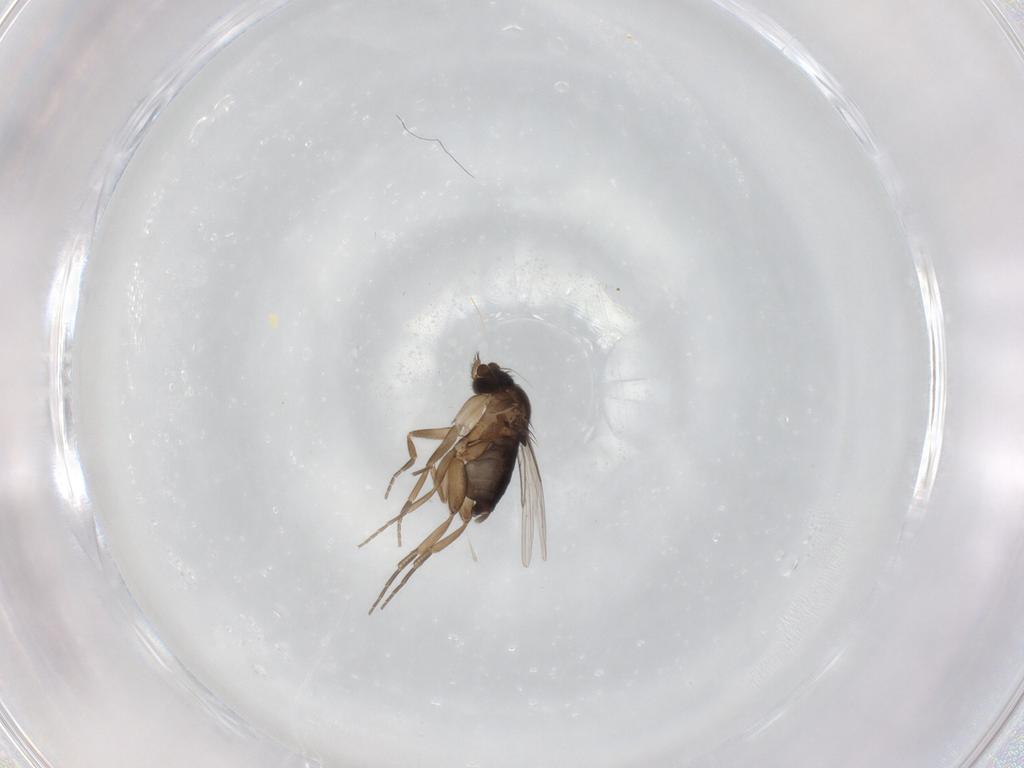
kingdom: Animalia
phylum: Arthropoda
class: Insecta
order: Diptera
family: Phoridae
